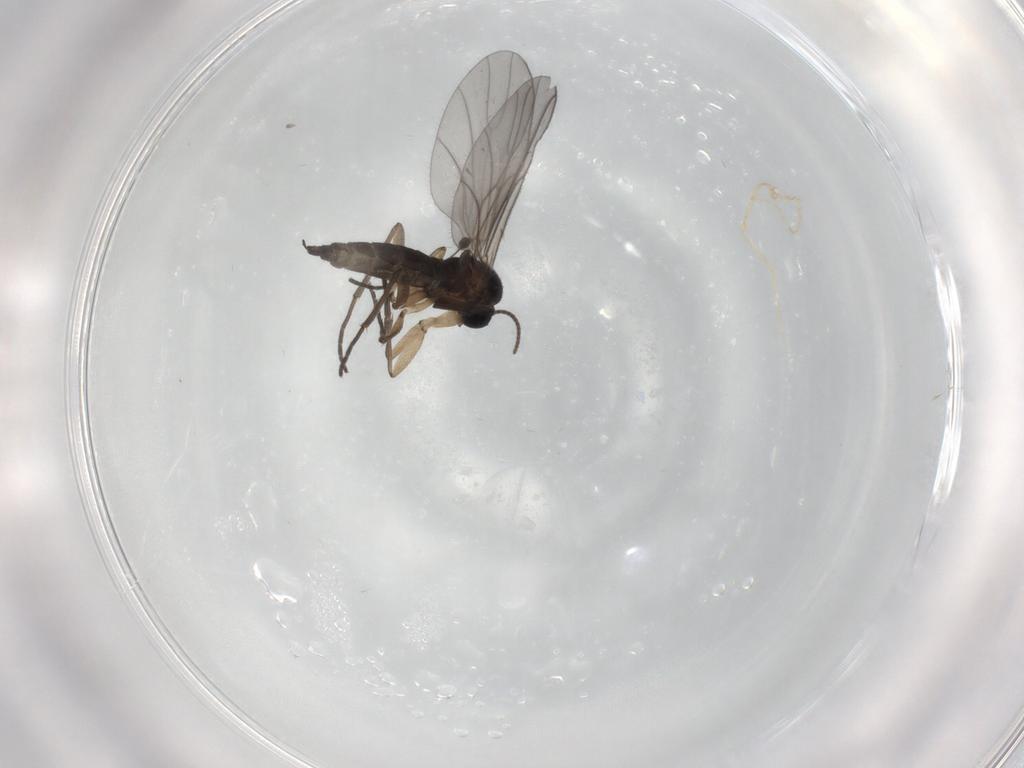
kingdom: Animalia
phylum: Arthropoda
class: Insecta
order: Diptera
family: Sciaridae
